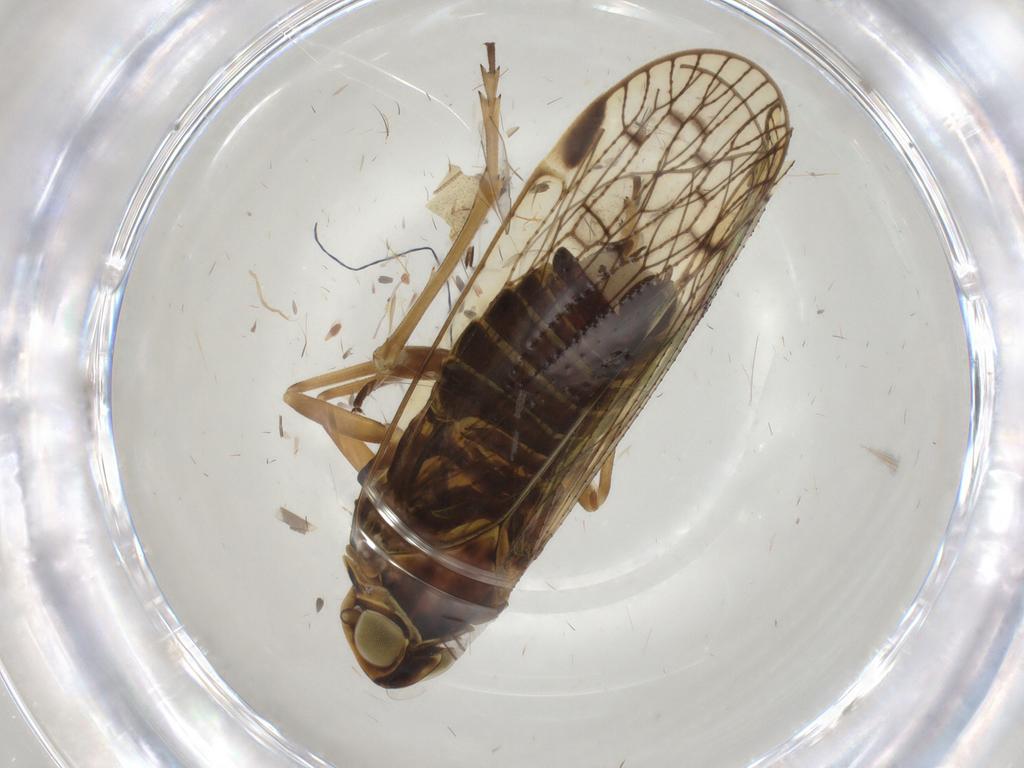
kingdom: Animalia
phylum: Arthropoda
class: Insecta
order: Hemiptera
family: Cixiidae
